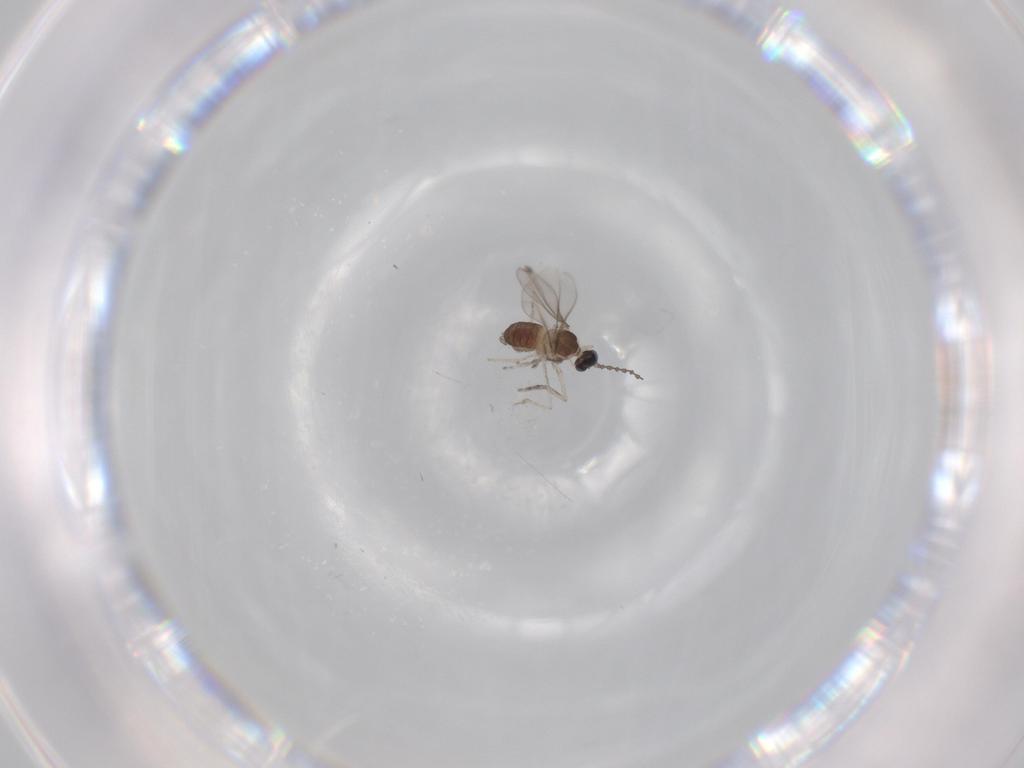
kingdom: Animalia
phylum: Arthropoda
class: Insecta
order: Diptera
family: Cecidomyiidae
